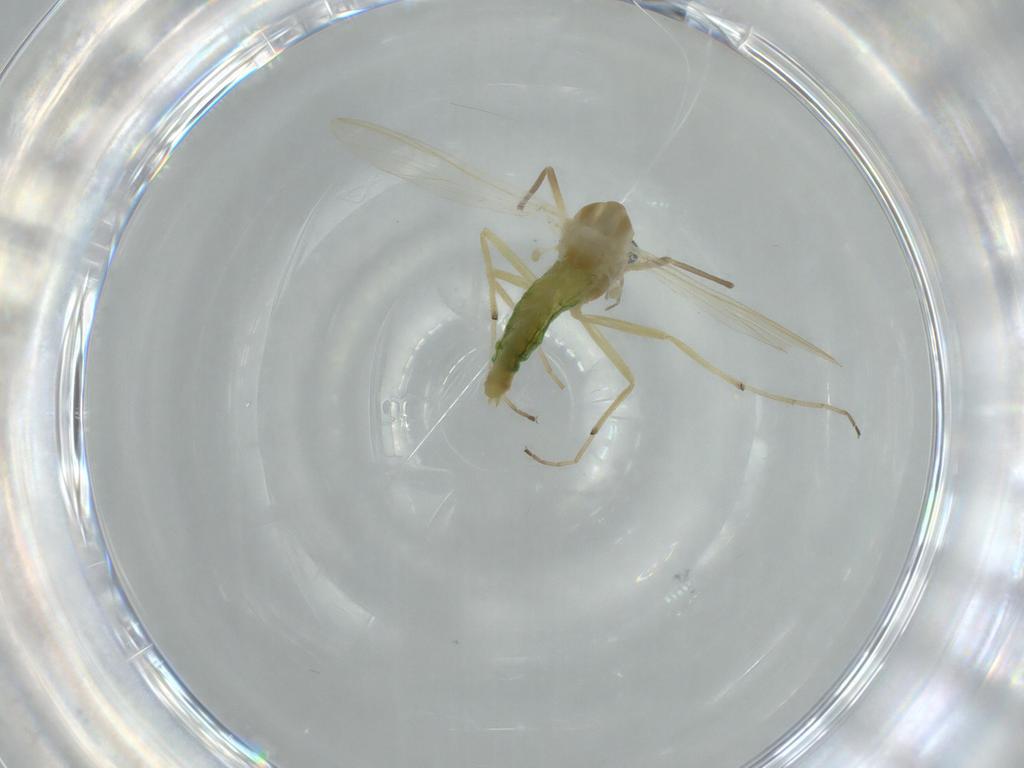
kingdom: Animalia
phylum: Arthropoda
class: Insecta
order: Diptera
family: Chironomidae
